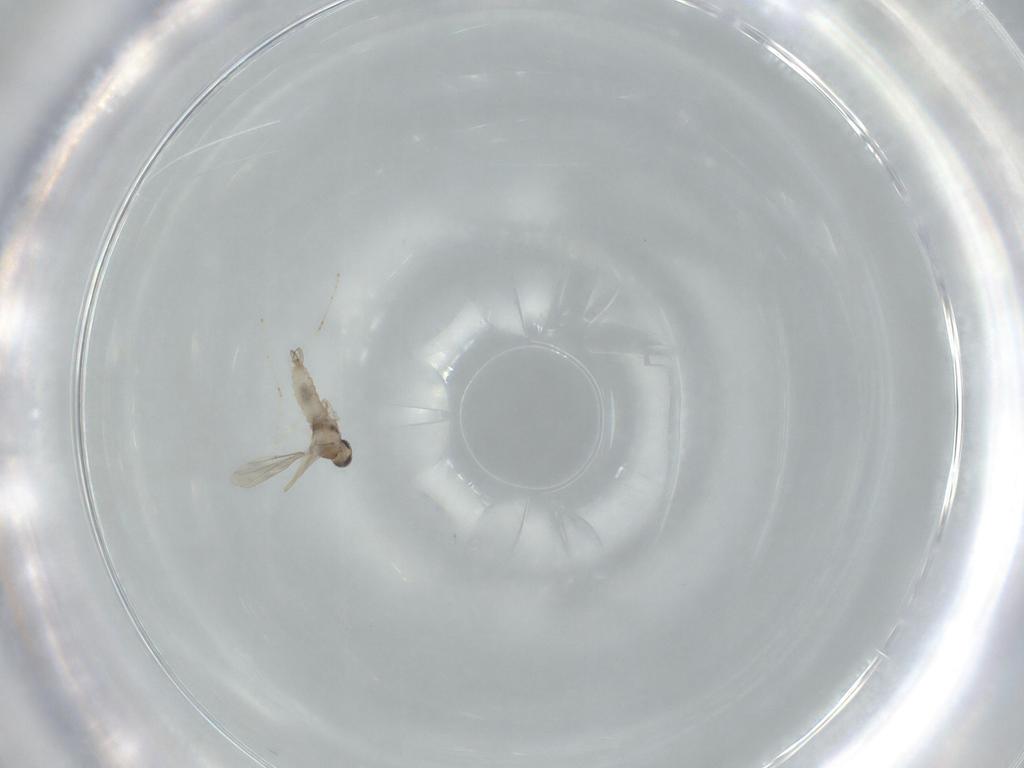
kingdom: Animalia
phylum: Arthropoda
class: Insecta
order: Diptera
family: Cecidomyiidae
